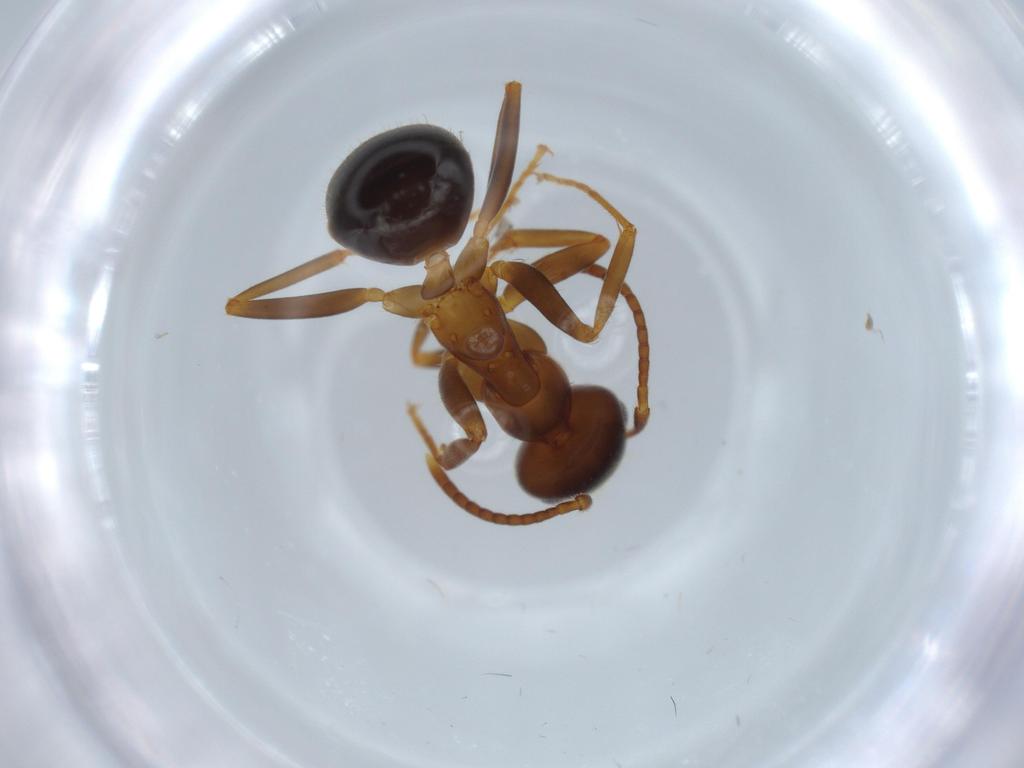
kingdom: Animalia
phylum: Arthropoda
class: Insecta
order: Hymenoptera
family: Formicidae
